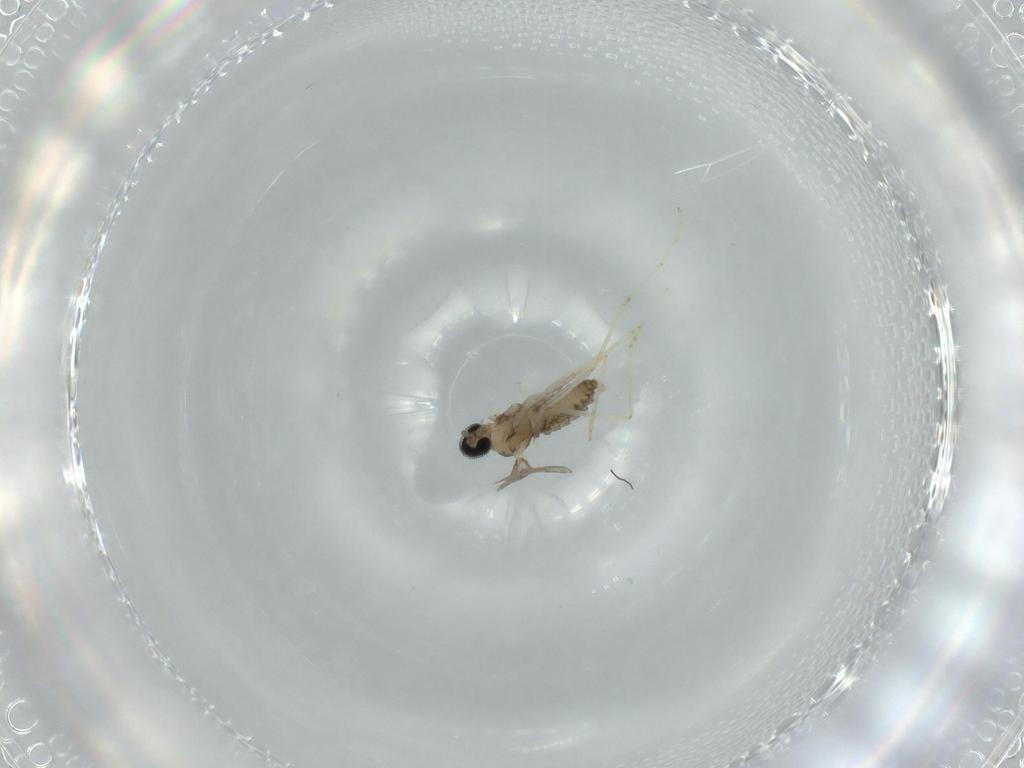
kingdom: Animalia
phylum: Arthropoda
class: Insecta
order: Diptera
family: Cecidomyiidae
